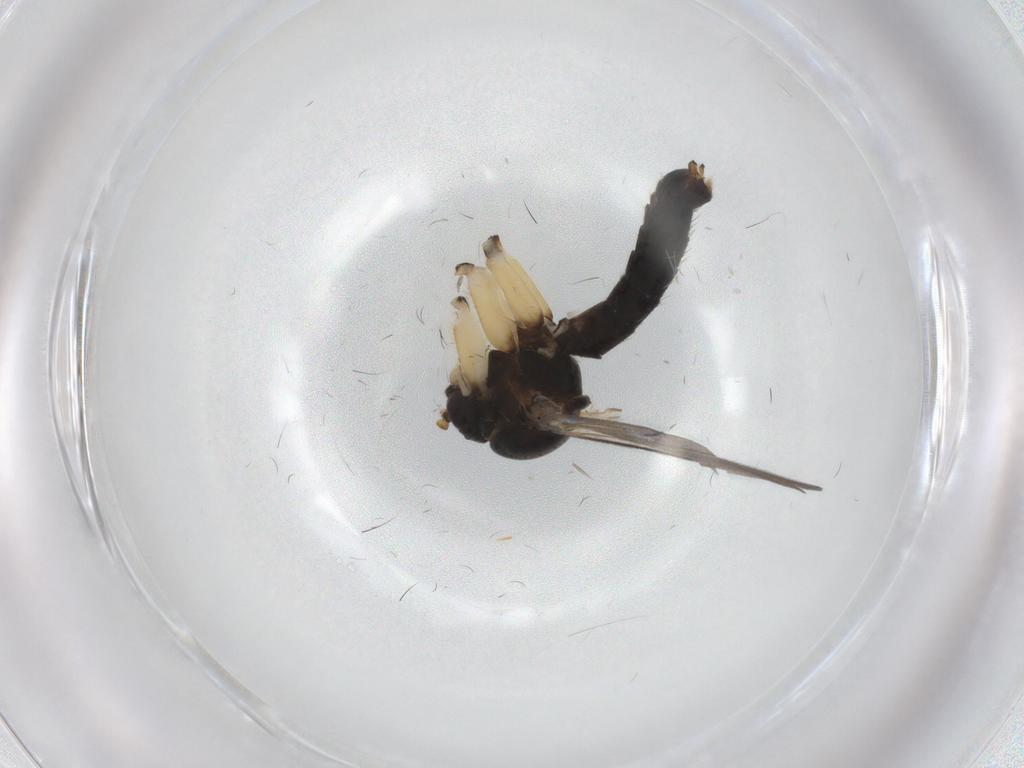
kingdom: Animalia
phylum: Arthropoda
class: Insecta
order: Diptera
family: Mycetophilidae
